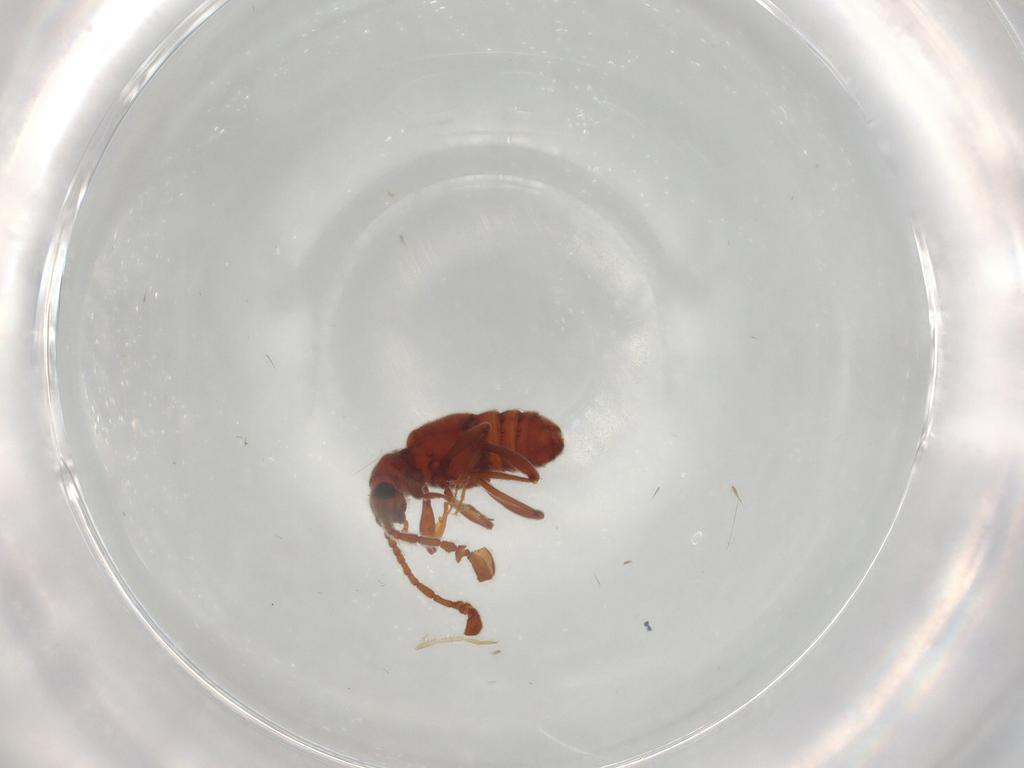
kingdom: Animalia
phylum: Arthropoda
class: Insecta
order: Coleoptera
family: Staphylinidae
